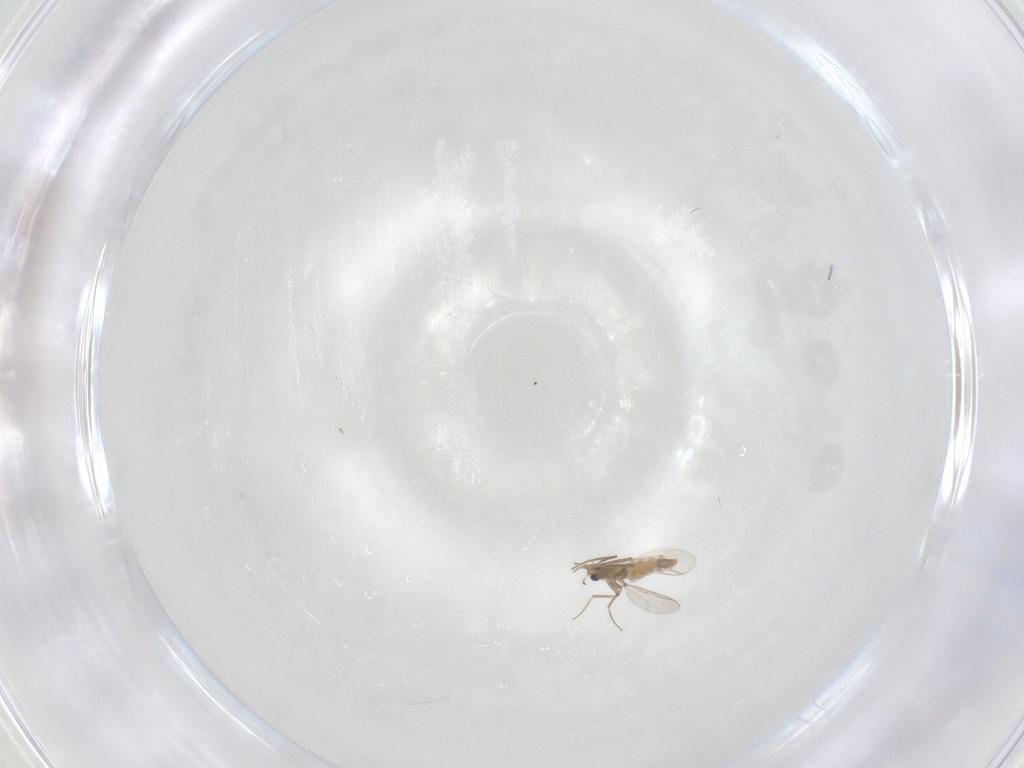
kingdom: Animalia
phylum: Arthropoda
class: Insecta
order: Diptera
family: Chironomidae
